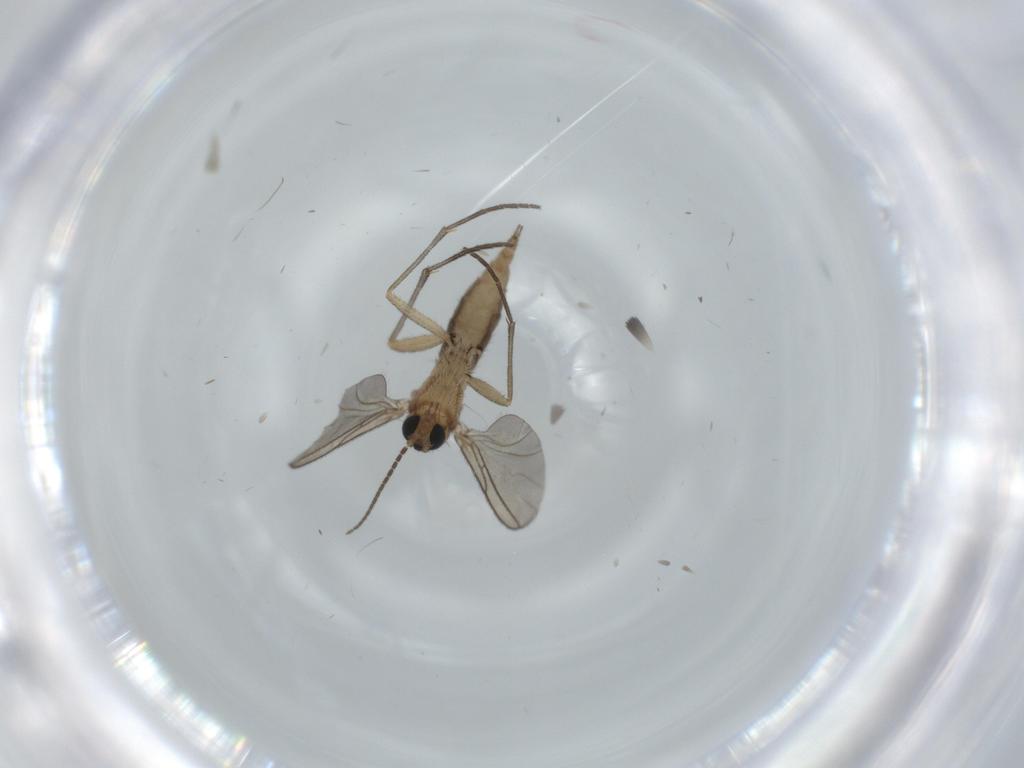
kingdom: Animalia
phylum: Arthropoda
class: Insecta
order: Diptera
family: Sciaridae
